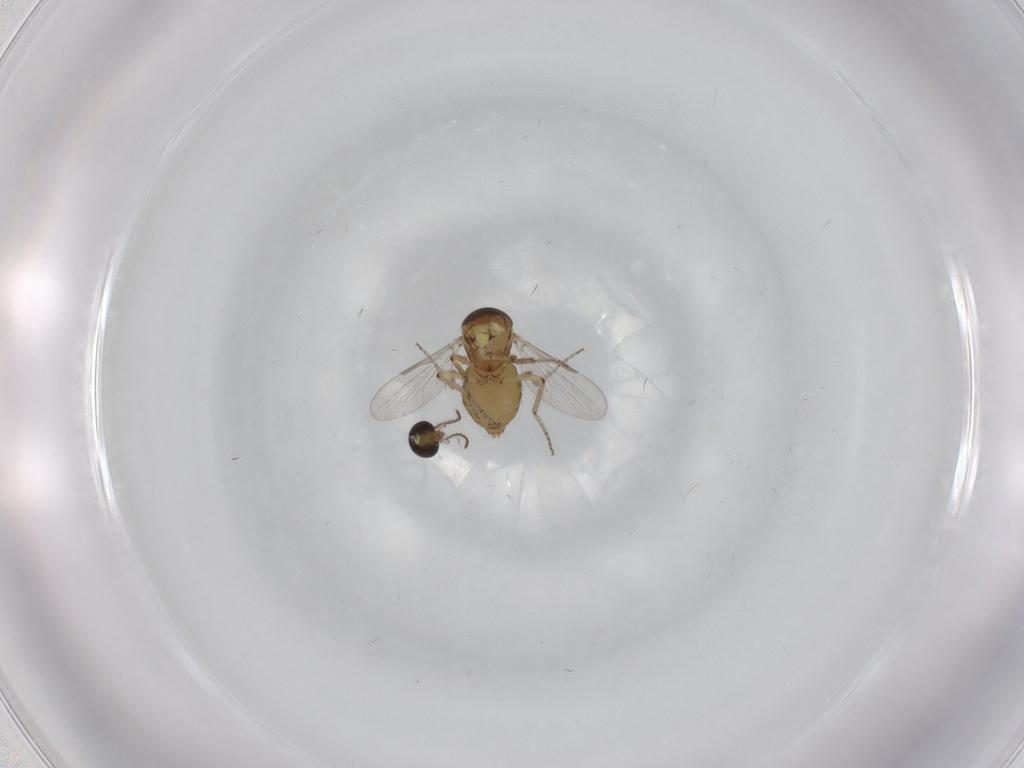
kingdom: Animalia
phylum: Arthropoda
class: Insecta
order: Diptera
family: Ceratopogonidae
